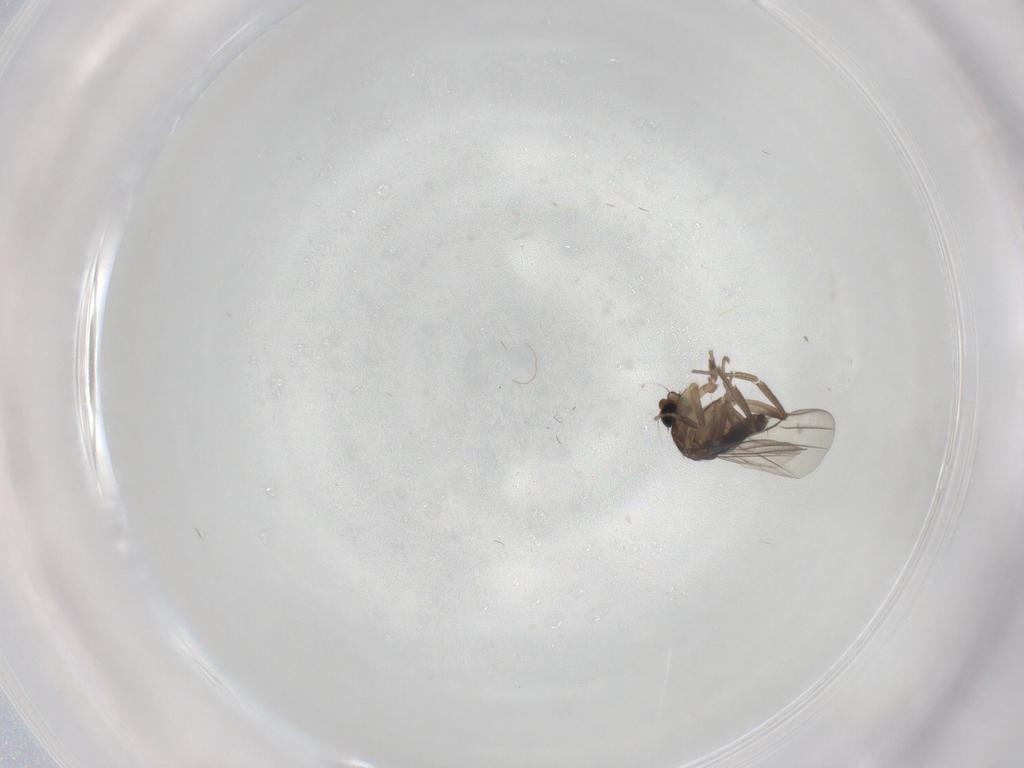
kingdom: Animalia
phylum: Arthropoda
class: Insecta
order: Diptera
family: Phoridae
